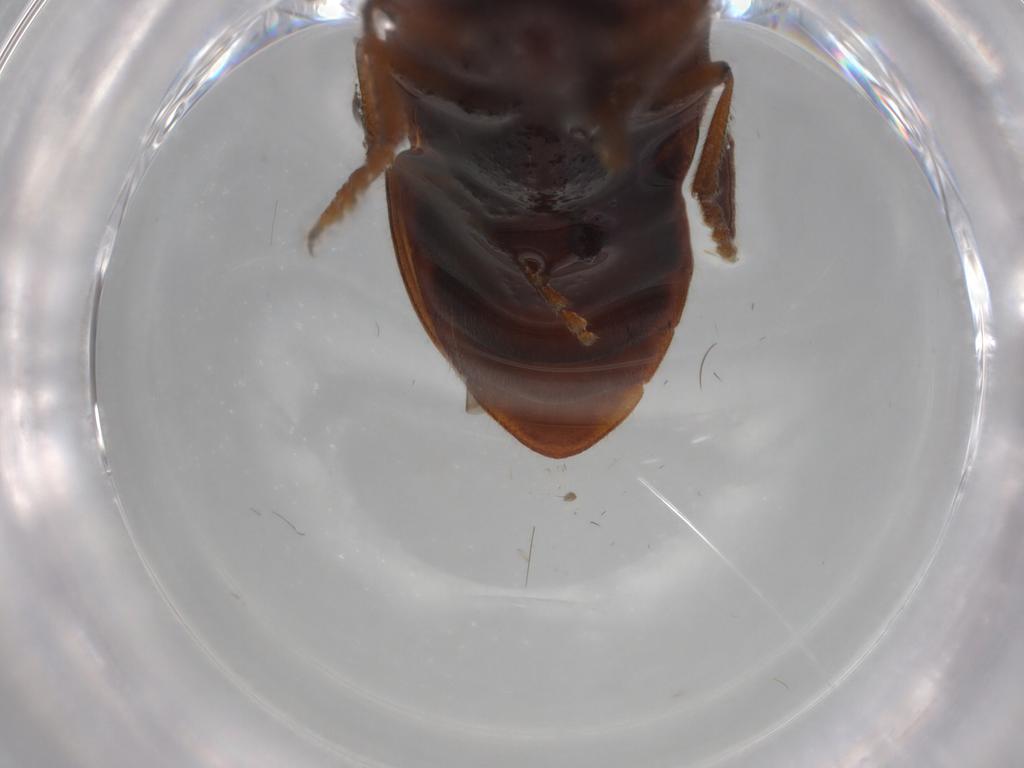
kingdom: Animalia
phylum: Arthropoda
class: Insecta
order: Coleoptera
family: Elateridae
